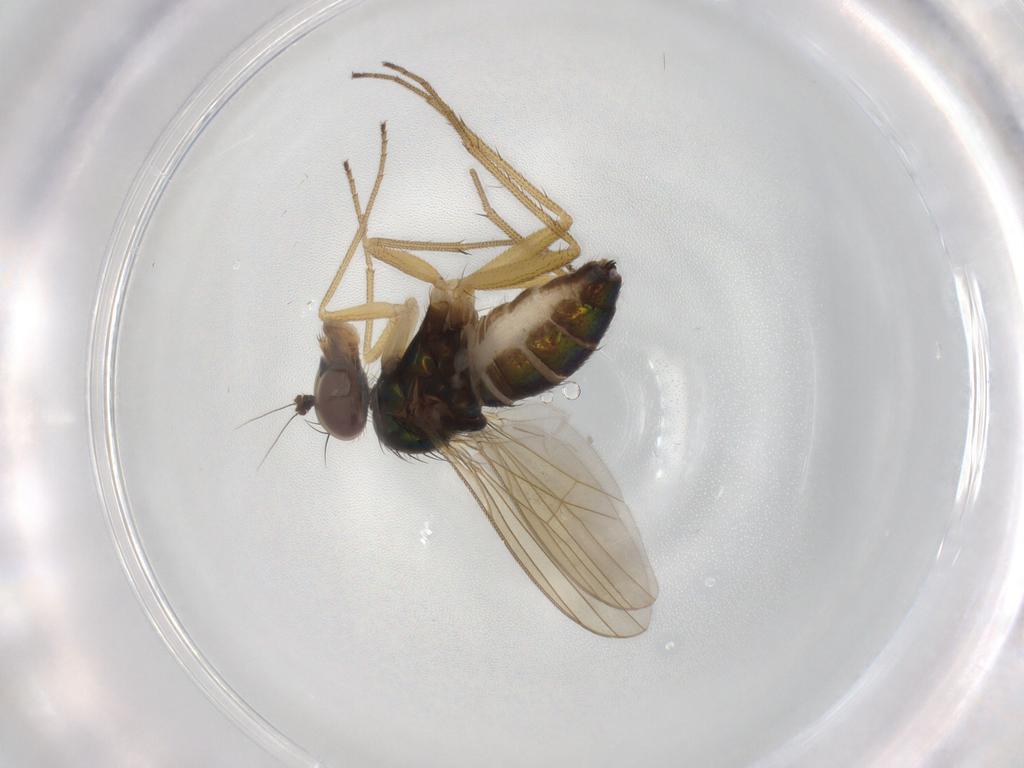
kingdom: Animalia
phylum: Arthropoda
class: Insecta
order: Diptera
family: Dolichopodidae
